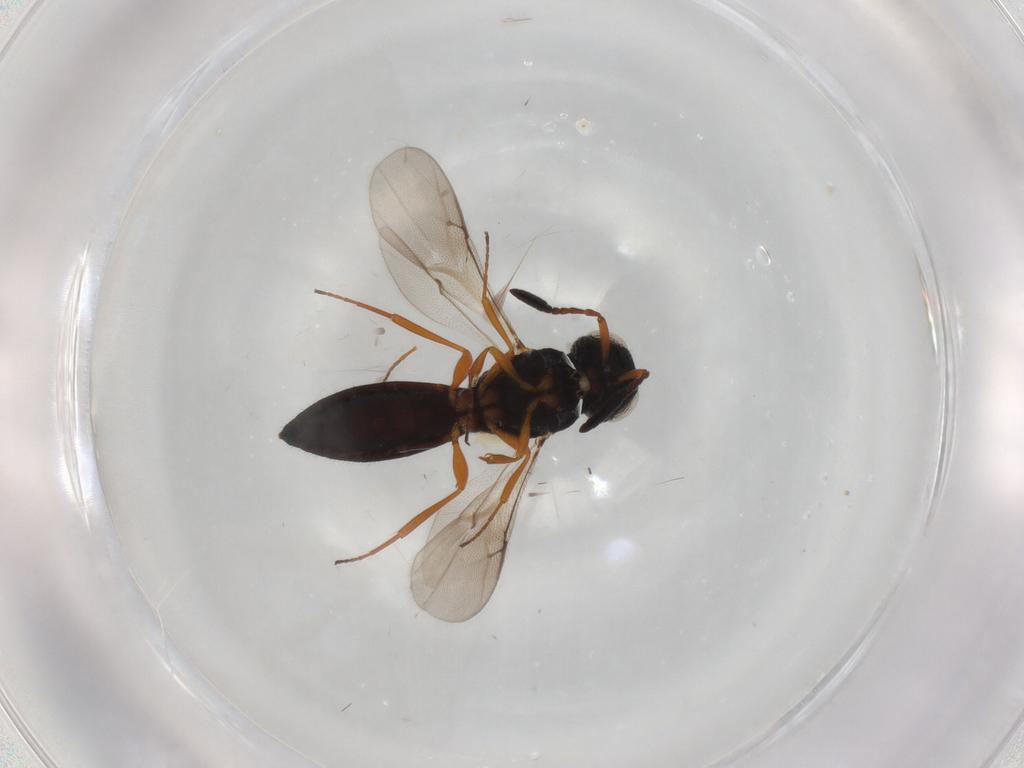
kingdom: Animalia
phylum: Arthropoda
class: Insecta
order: Hymenoptera
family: Scelionidae
